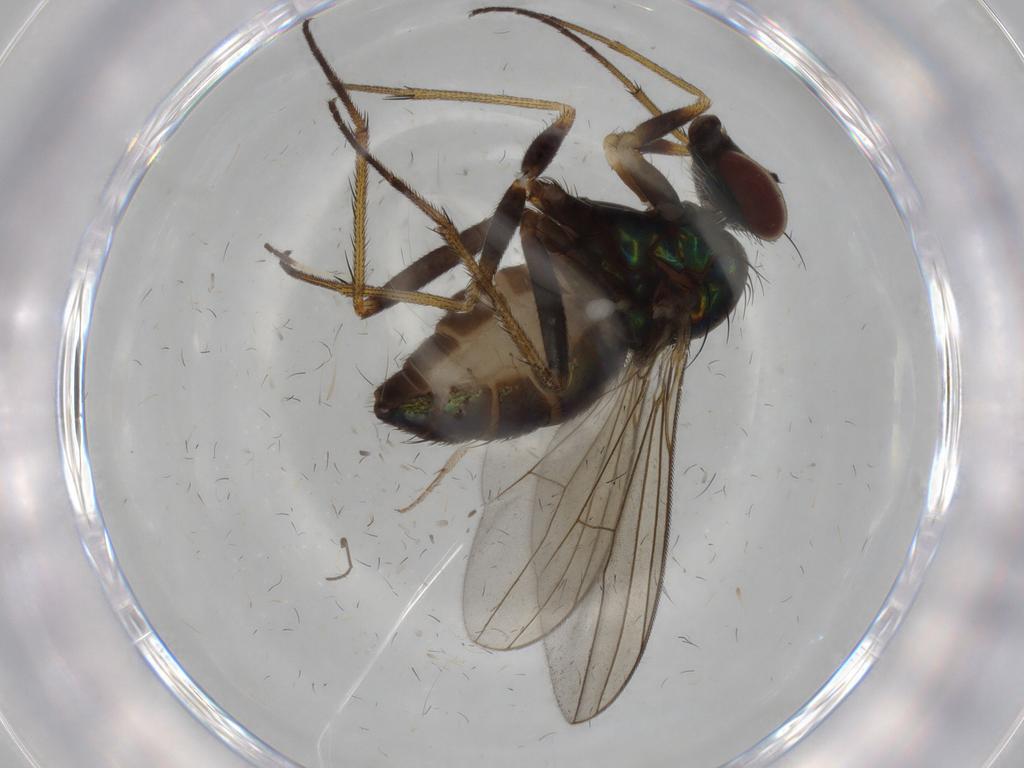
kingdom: Animalia
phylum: Arthropoda
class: Insecta
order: Diptera
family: Dolichopodidae
